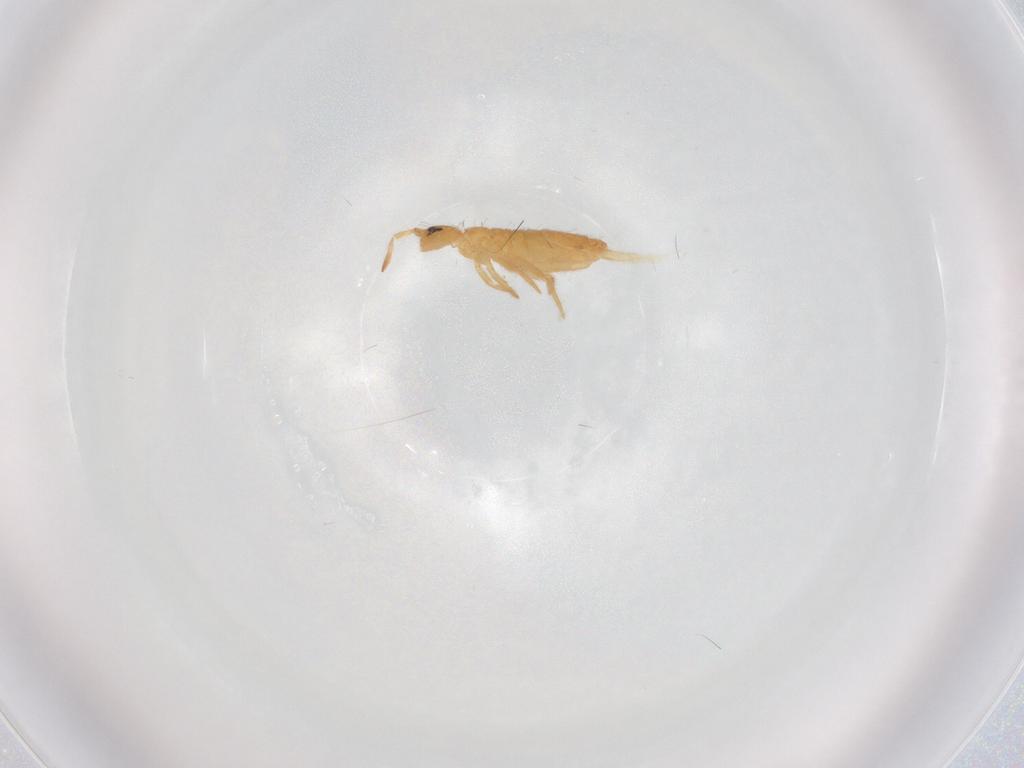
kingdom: Animalia
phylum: Arthropoda
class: Collembola
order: Entomobryomorpha
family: Entomobryidae
